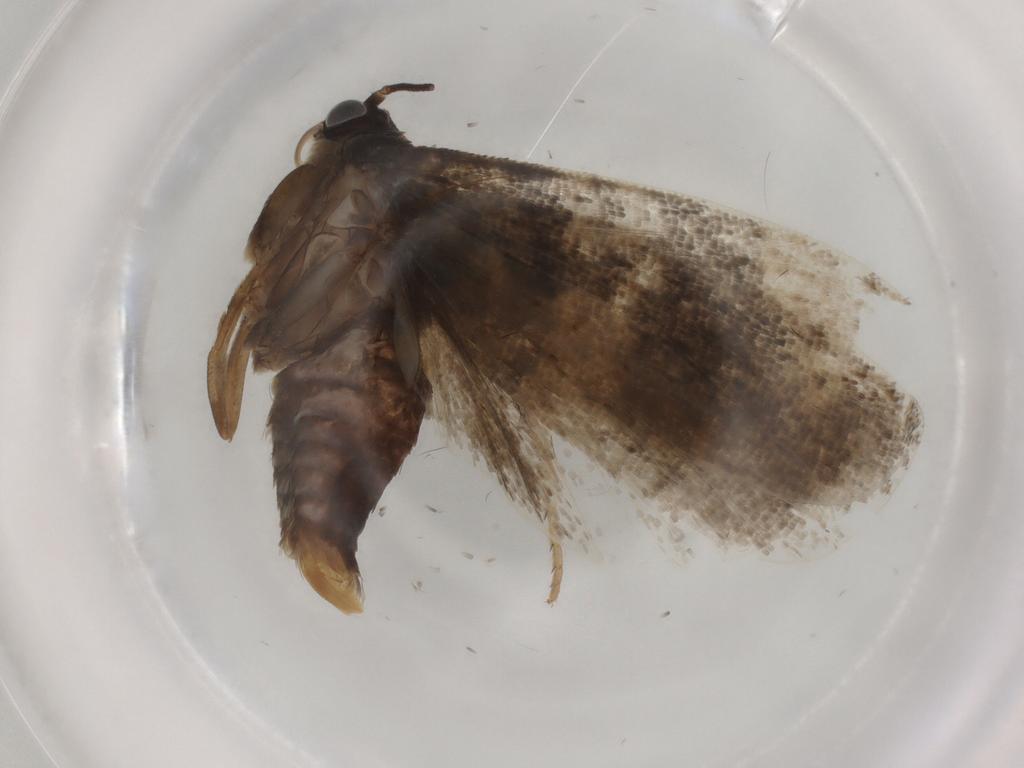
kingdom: Animalia
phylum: Arthropoda
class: Insecta
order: Lepidoptera
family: Tortricidae
